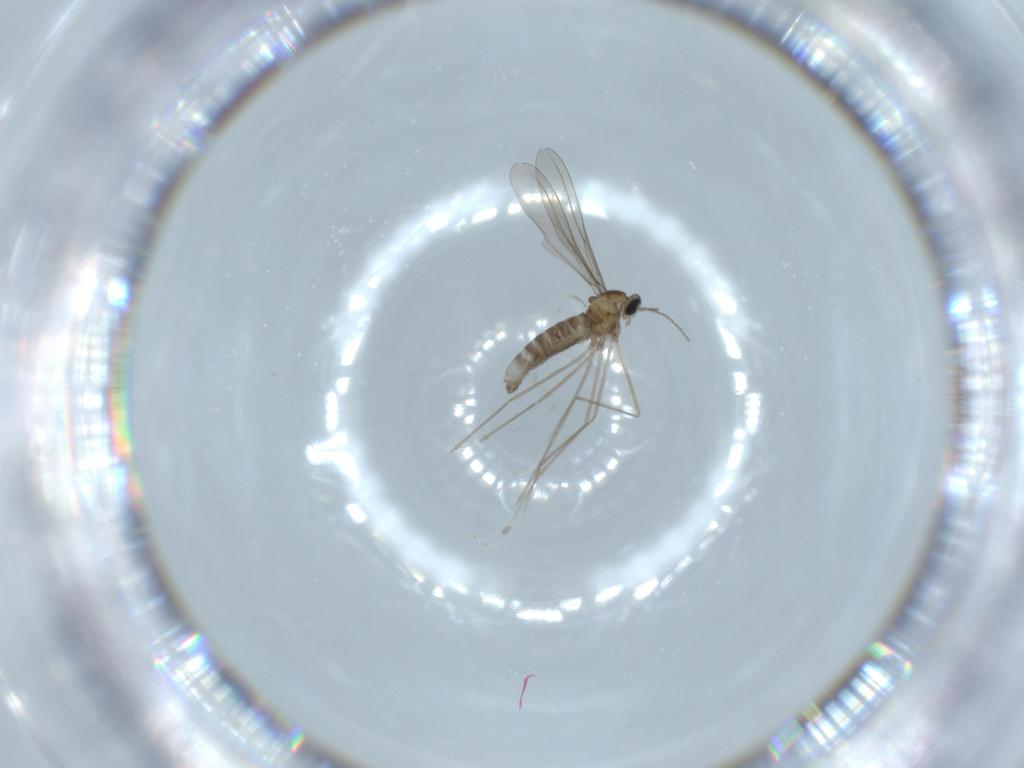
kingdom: Animalia
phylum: Arthropoda
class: Insecta
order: Diptera
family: Cecidomyiidae
